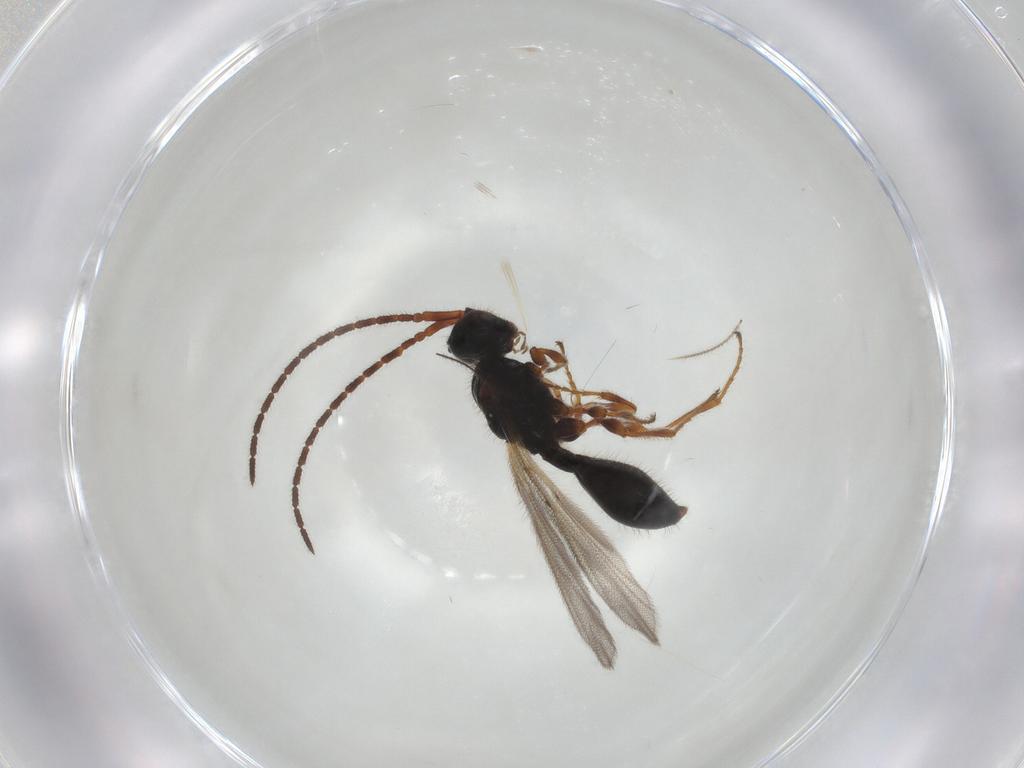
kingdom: Animalia
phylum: Arthropoda
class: Insecta
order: Hymenoptera
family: Diapriidae
